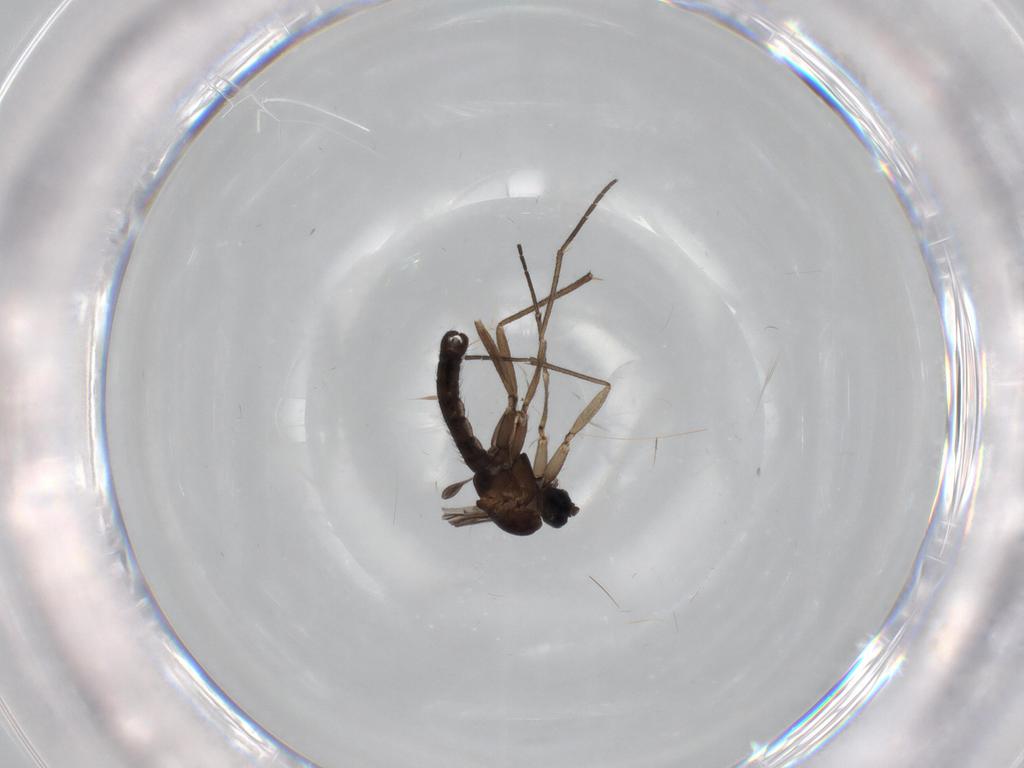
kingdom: Animalia
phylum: Arthropoda
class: Insecta
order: Diptera
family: Sciaridae
